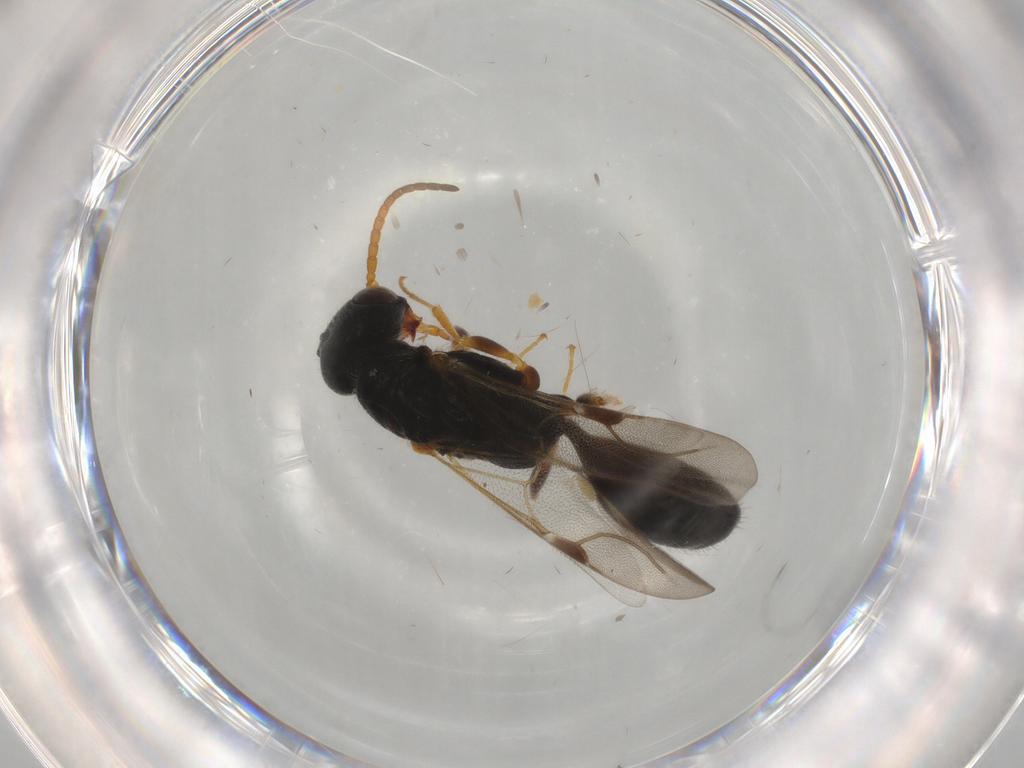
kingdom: Animalia
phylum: Arthropoda
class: Insecta
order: Hymenoptera
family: Bethylidae
